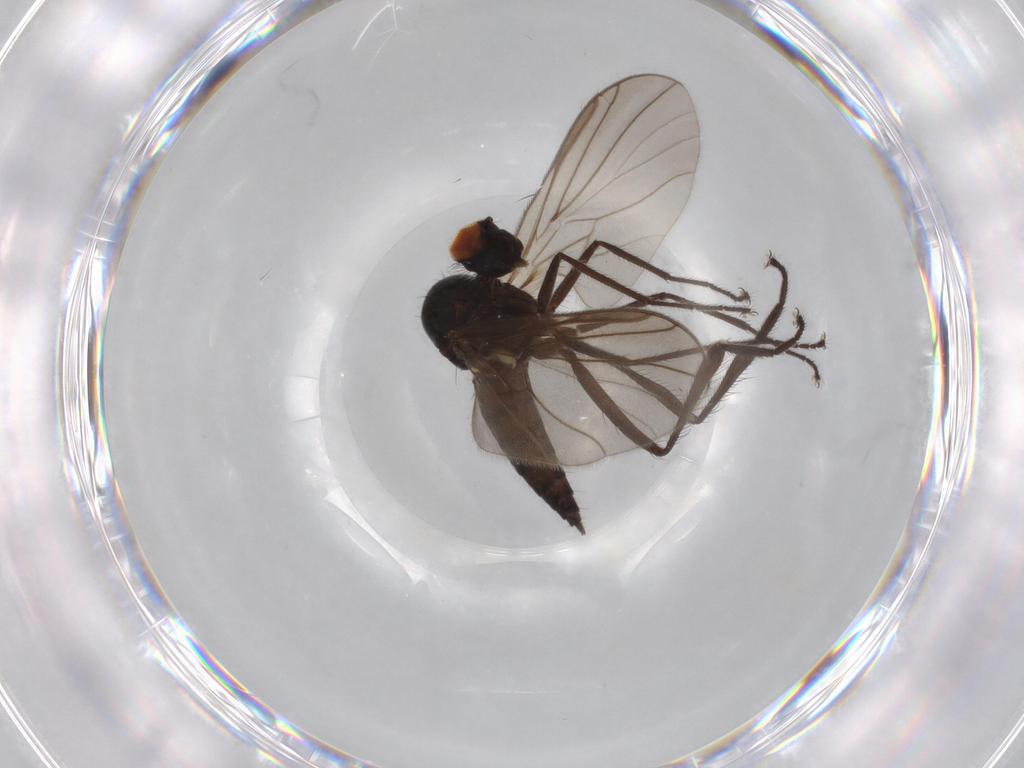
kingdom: Animalia
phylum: Arthropoda
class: Insecta
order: Diptera
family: Hybotidae
